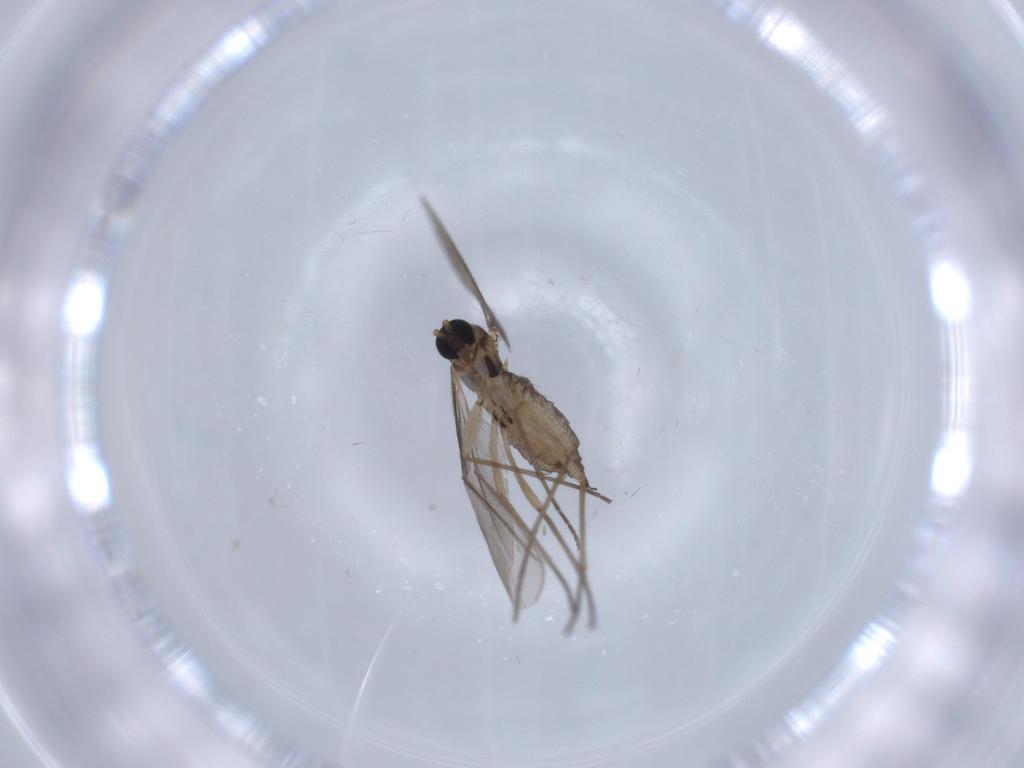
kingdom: Animalia
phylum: Arthropoda
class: Insecta
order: Diptera
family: Sciaridae
